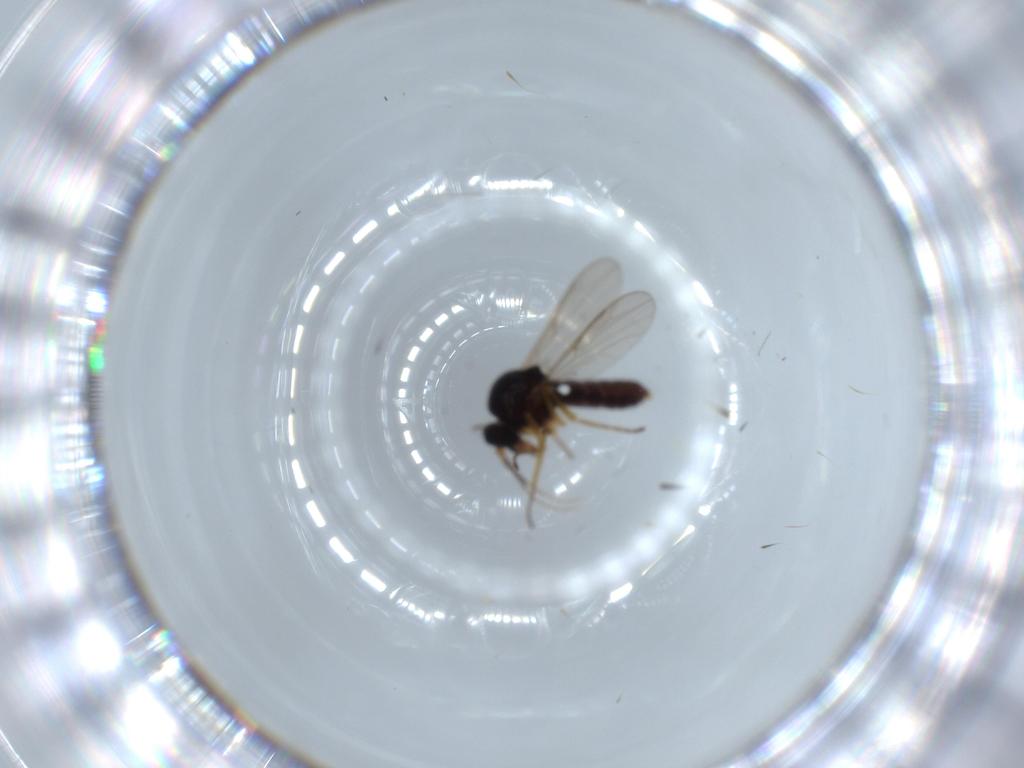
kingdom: Animalia
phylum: Arthropoda
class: Insecta
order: Diptera
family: Ceratopogonidae
